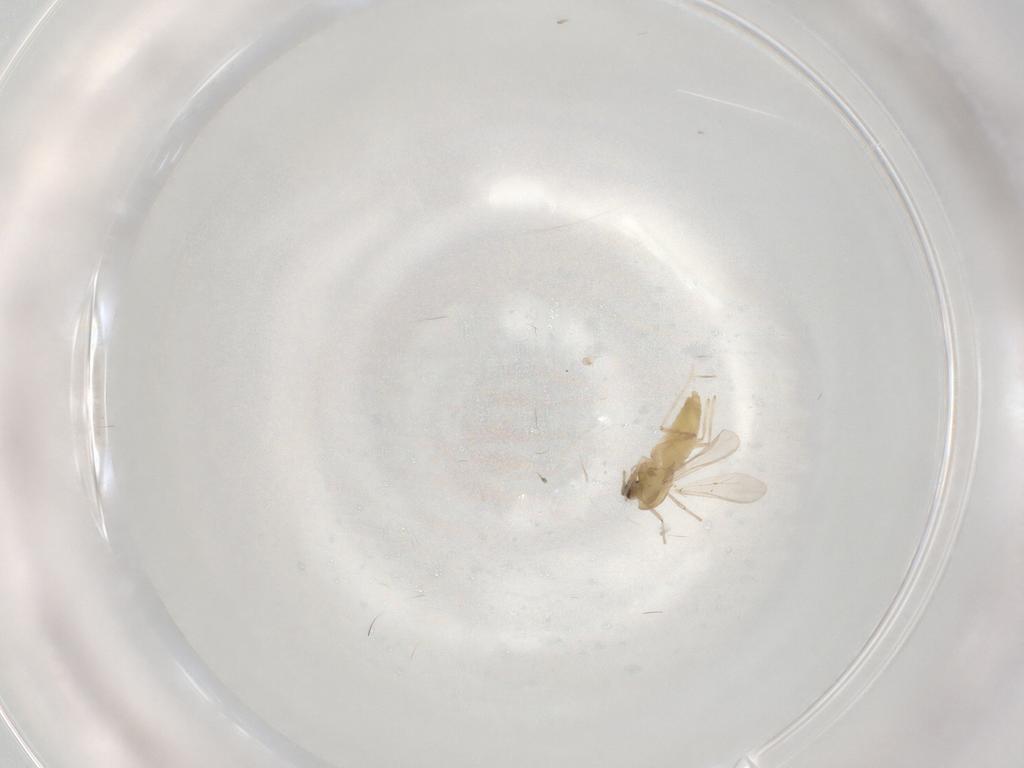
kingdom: Animalia
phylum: Arthropoda
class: Insecta
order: Diptera
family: Chironomidae
